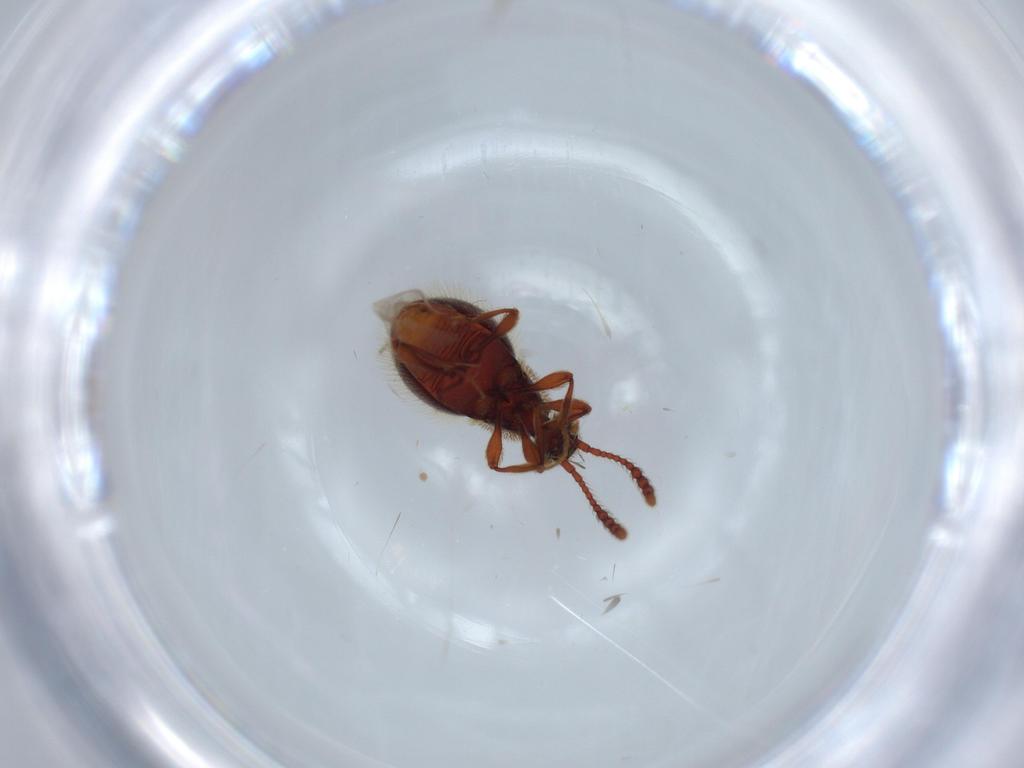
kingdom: Animalia
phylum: Arthropoda
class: Insecta
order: Coleoptera
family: Staphylinidae
